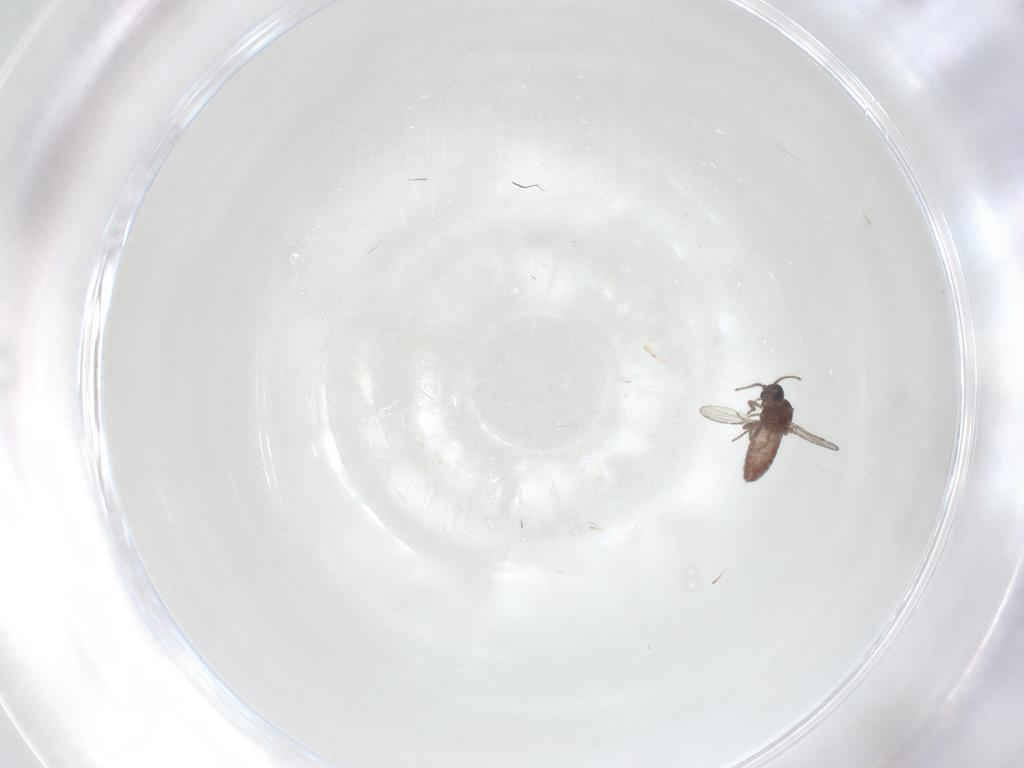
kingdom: Animalia
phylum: Arthropoda
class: Insecta
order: Diptera
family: Ceratopogonidae
